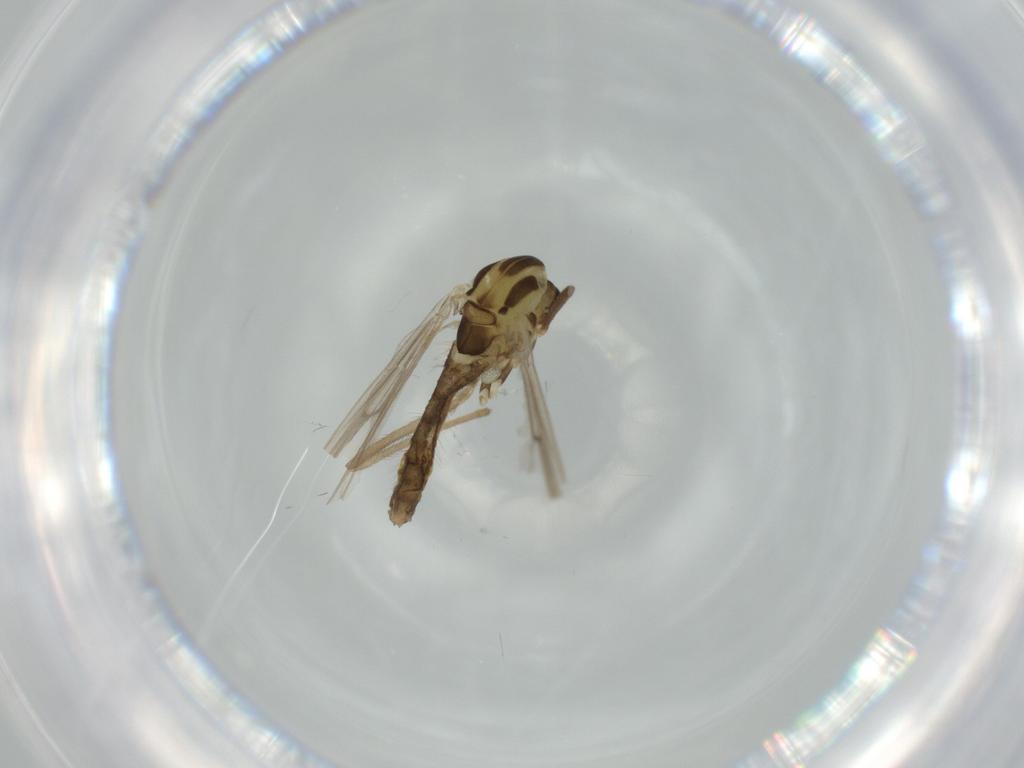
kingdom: Animalia
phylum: Arthropoda
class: Insecta
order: Diptera
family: Chironomidae
